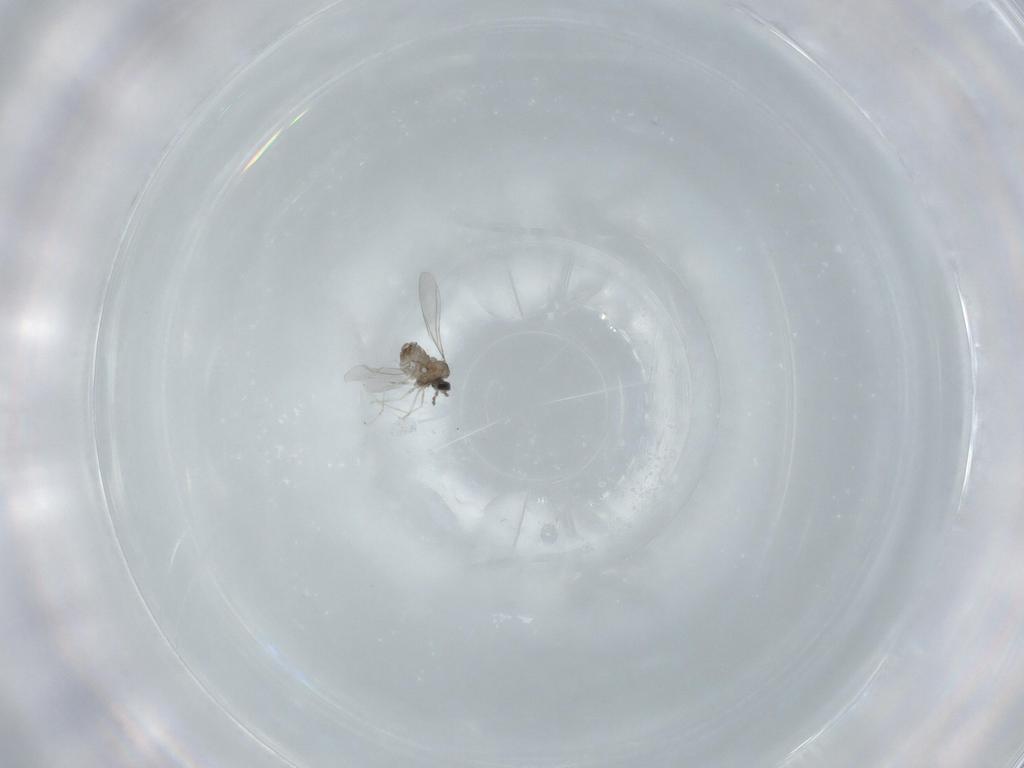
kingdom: Animalia
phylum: Arthropoda
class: Insecta
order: Diptera
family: Cecidomyiidae
